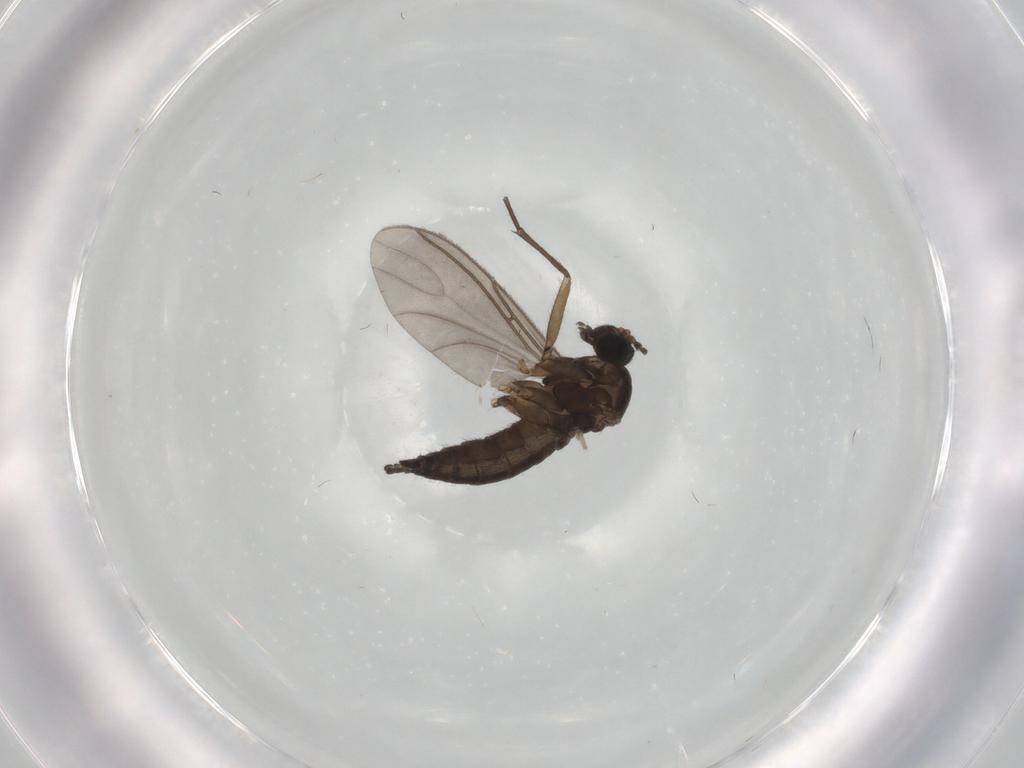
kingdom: Animalia
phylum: Arthropoda
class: Insecta
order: Diptera
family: Sciaridae
